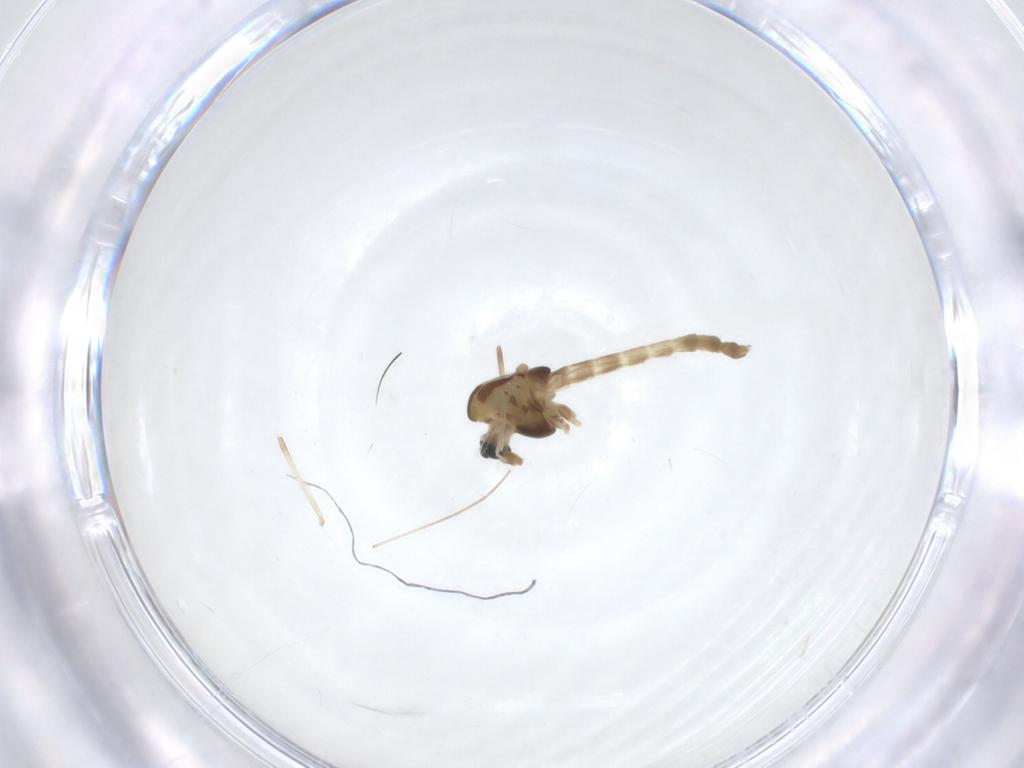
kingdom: Animalia
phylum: Arthropoda
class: Insecta
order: Diptera
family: Chironomidae
